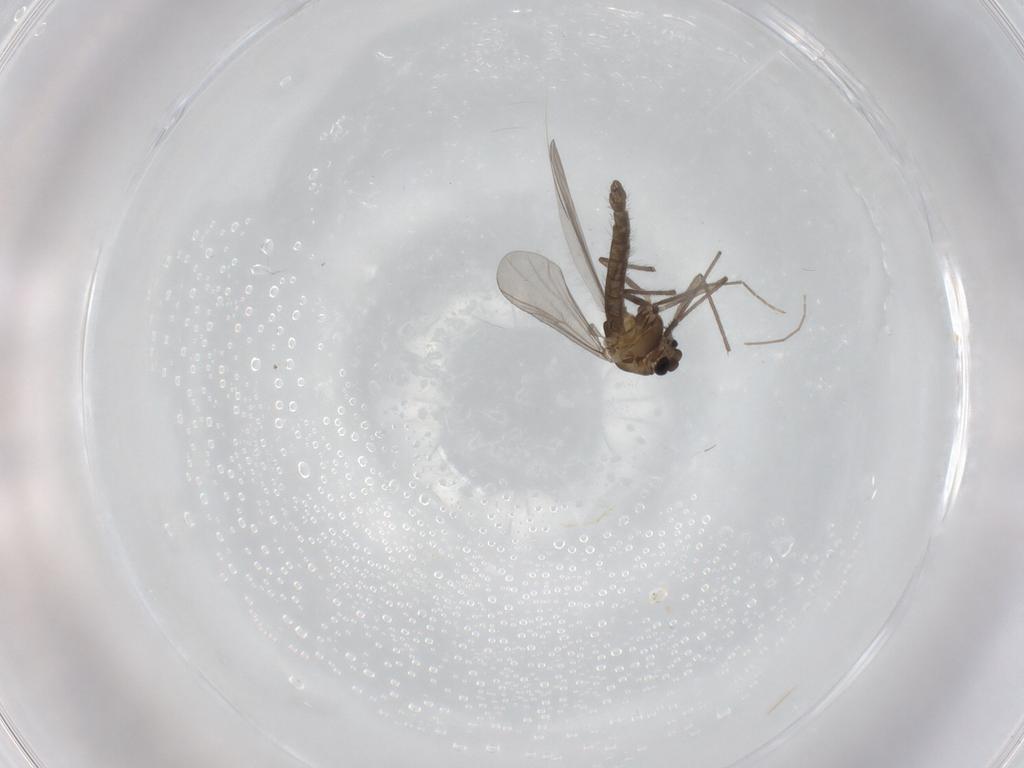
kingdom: Animalia
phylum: Arthropoda
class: Insecta
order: Diptera
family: Chironomidae
